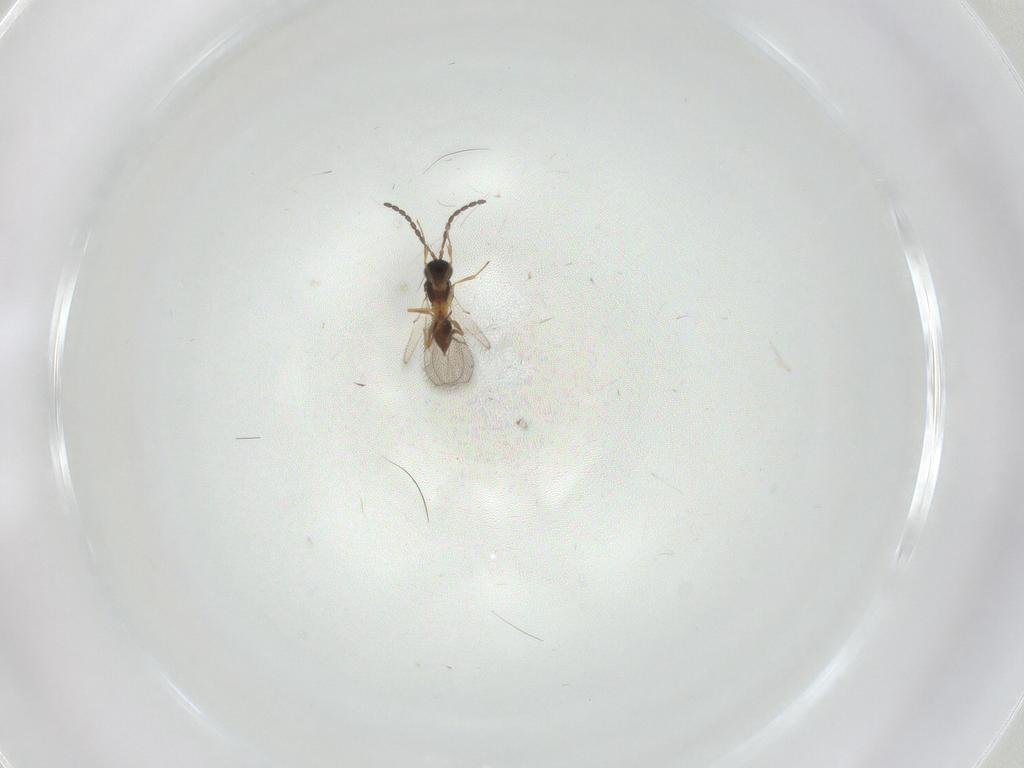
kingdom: Animalia
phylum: Arthropoda
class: Insecta
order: Hymenoptera
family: Figitidae
